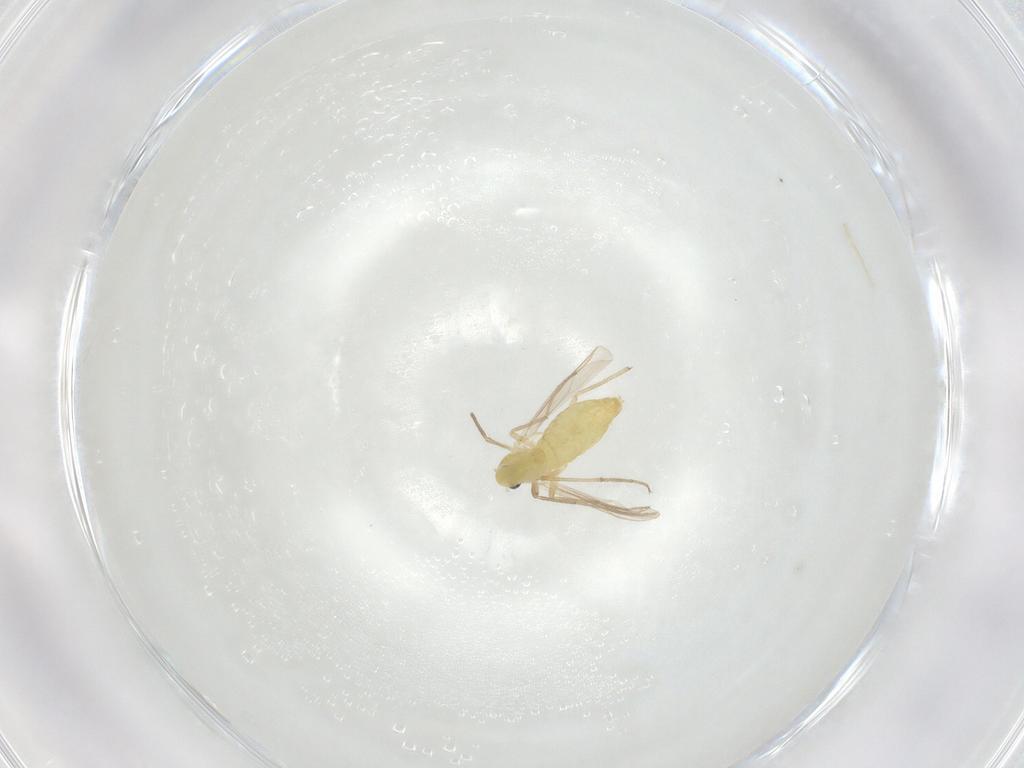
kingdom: Animalia
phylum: Arthropoda
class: Insecta
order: Diptera
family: Chironomidae
